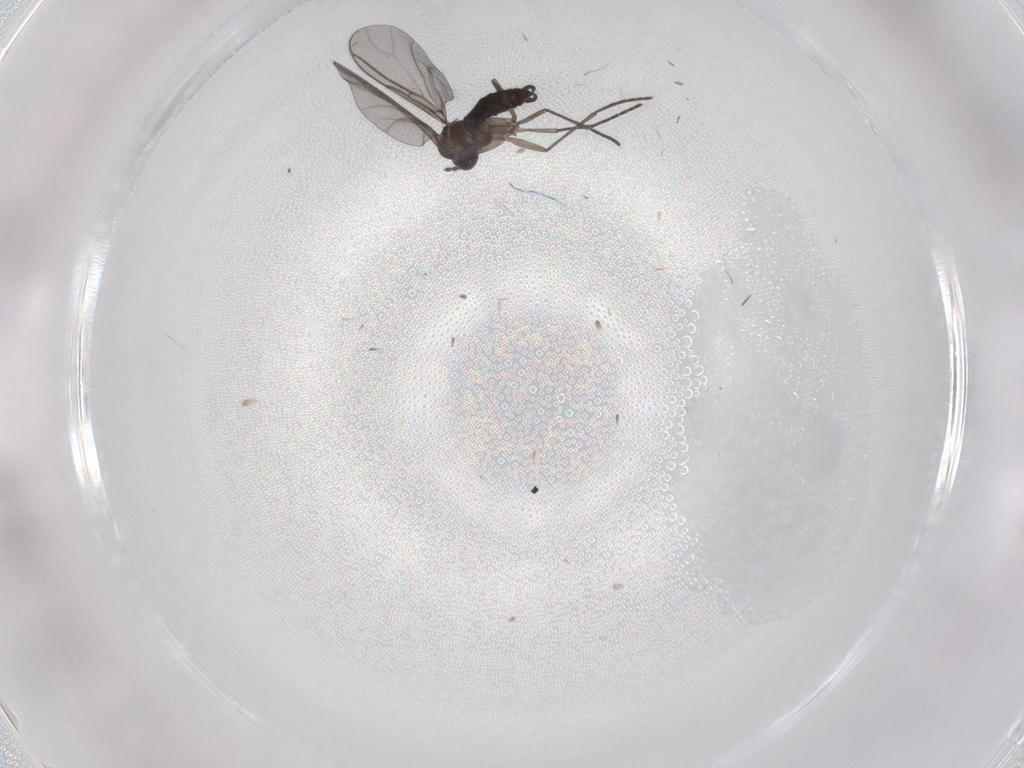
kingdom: Animalia
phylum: Arthropoda
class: Insecta
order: Diptera
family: Sciaridae
